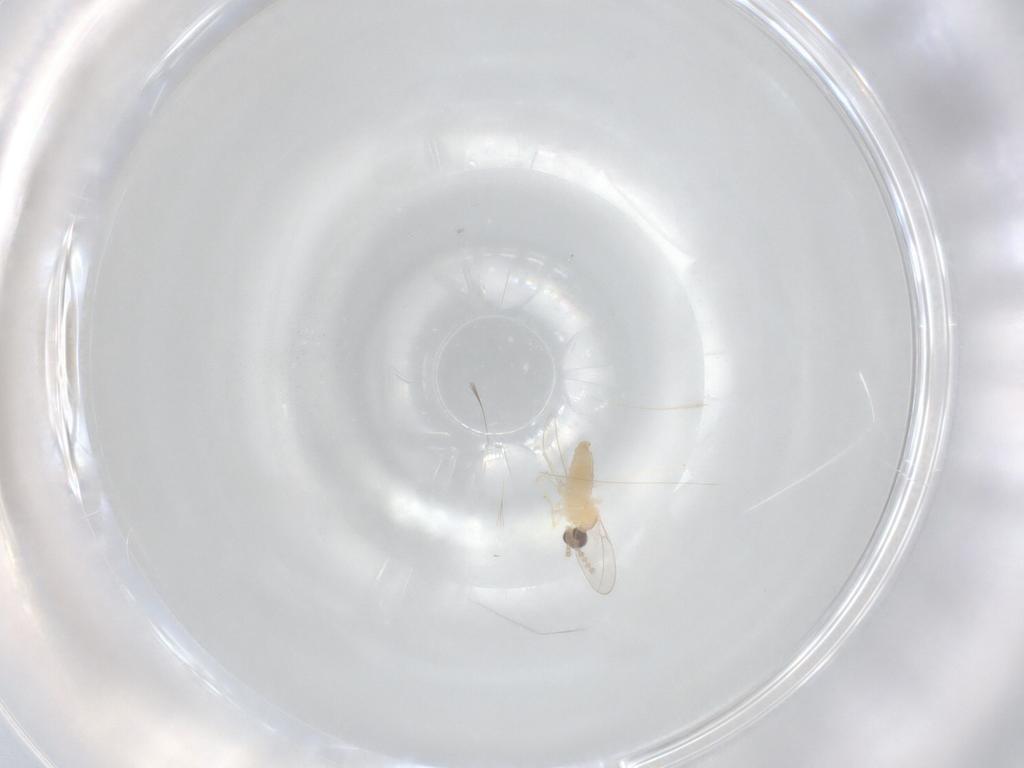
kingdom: Animalia
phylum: Arthropoda
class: Insecta
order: Diptera
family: Cecidomyiidae
